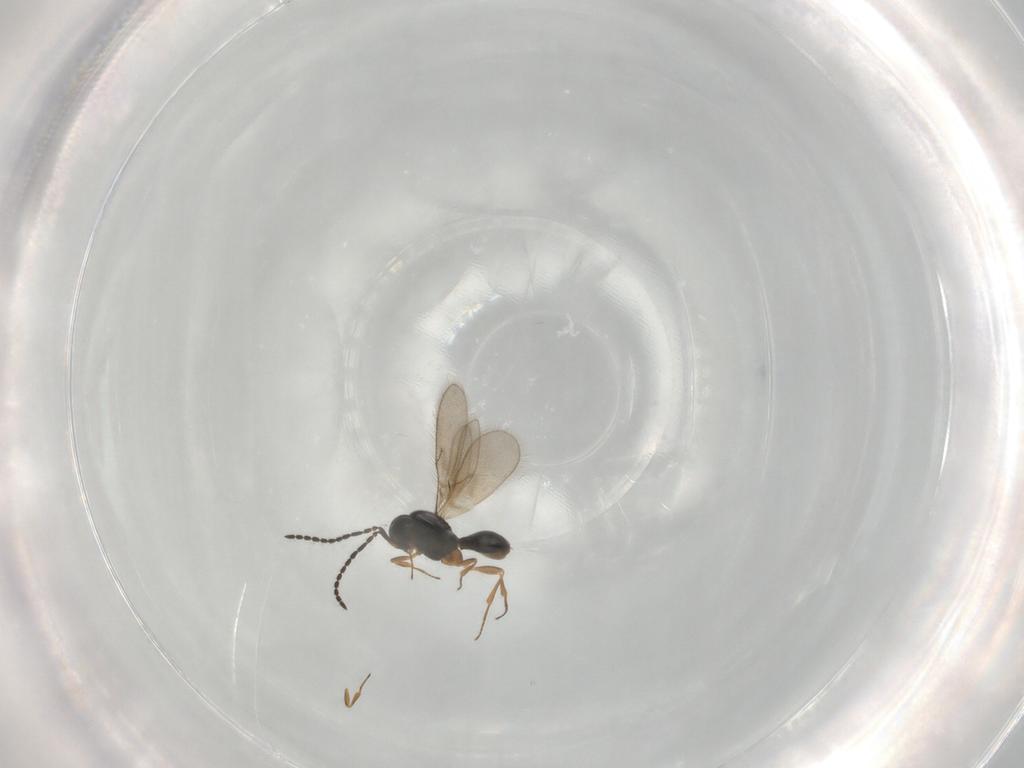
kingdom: Animalia
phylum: Arthropoda
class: Insecta
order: Hymenoptera
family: Scelionidae
